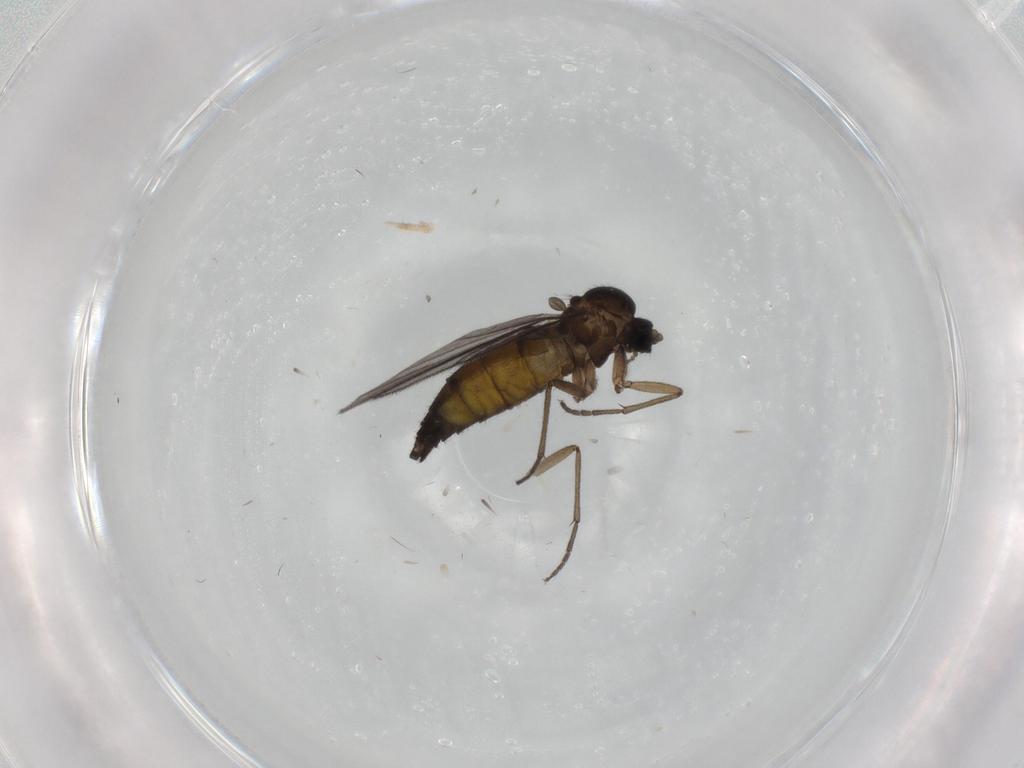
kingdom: Animalia
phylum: Arthropoda
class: Insecta
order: Diptera
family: Sciaridae
